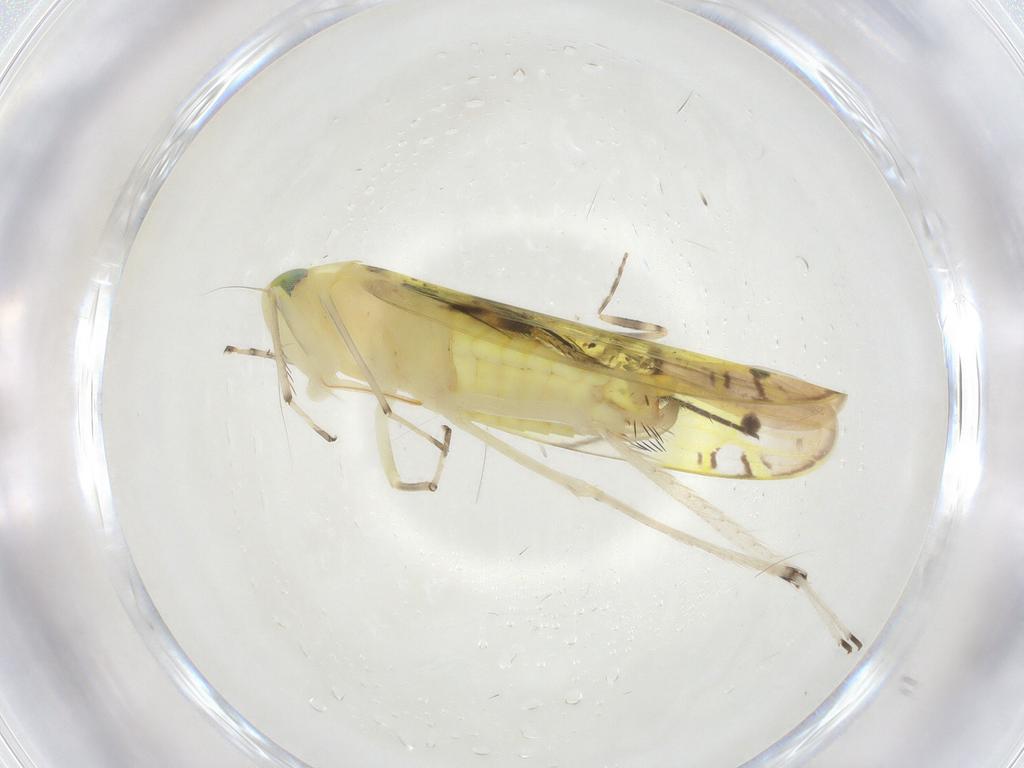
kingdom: Animalia
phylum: Arthropoda
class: Insecta
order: Hemiptera
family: Cicadellidae
